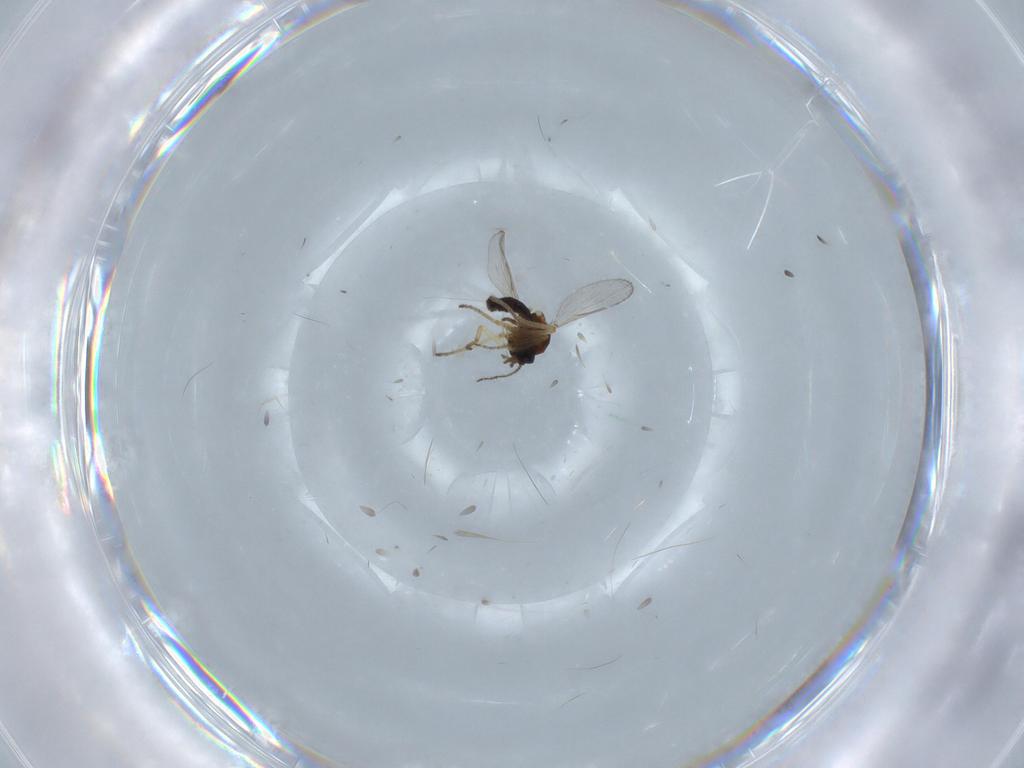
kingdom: Animalia
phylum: Arthropoda
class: Insecta
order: Diptera
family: Ceratopogonidae
